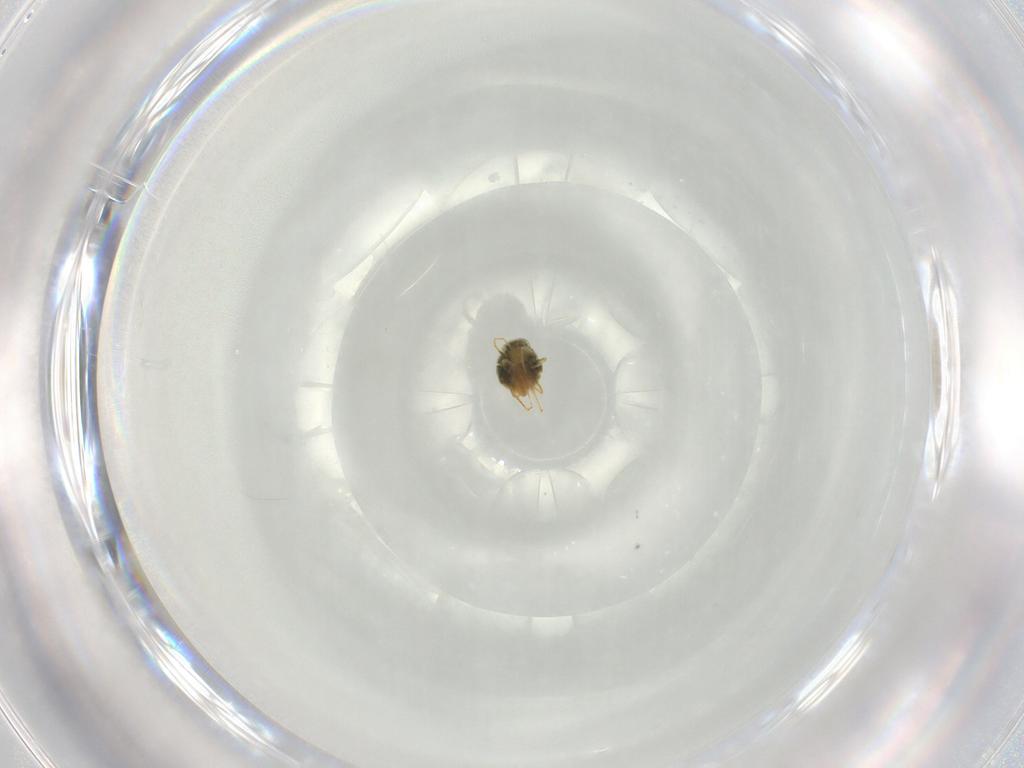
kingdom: Animalia
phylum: Arthropoda
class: Arachnida
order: Trombidiformes
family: Tetranychidae
